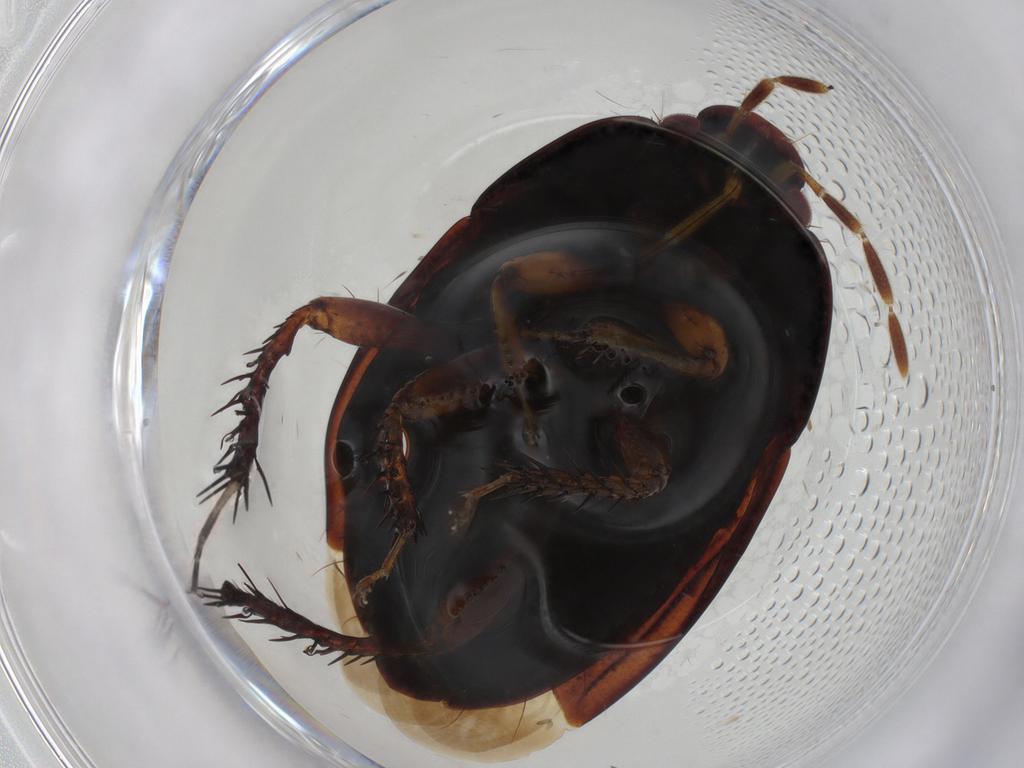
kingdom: Animalia
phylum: Arthropoda
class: Insecta
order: Hemiptera
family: Cydnidae
